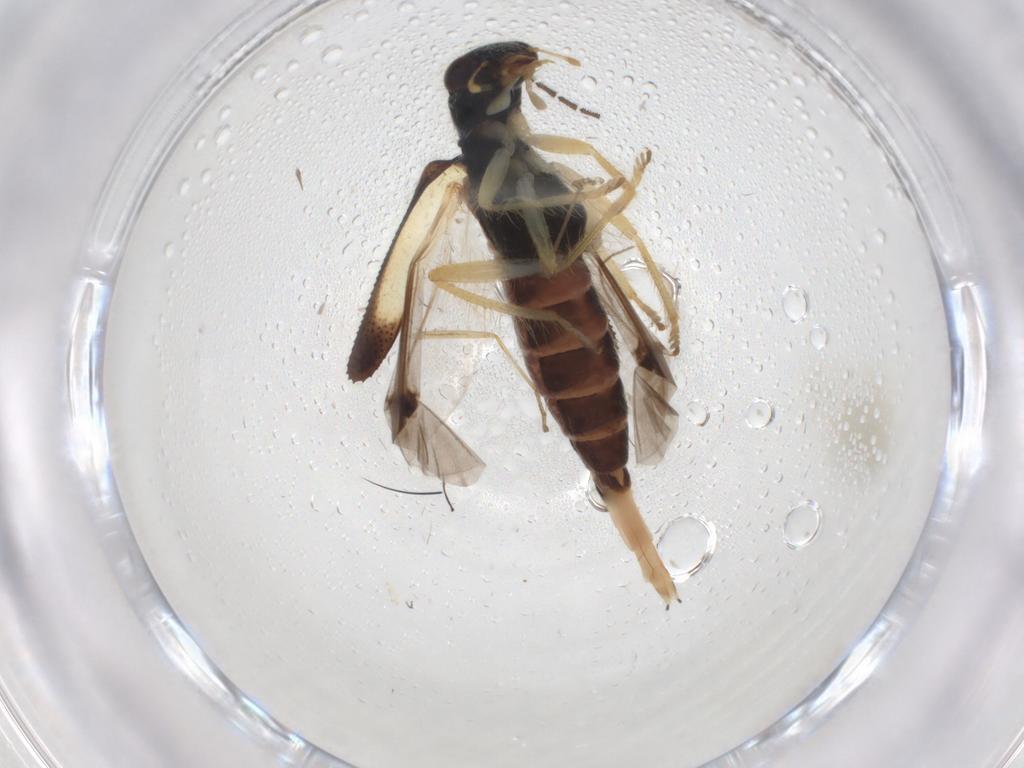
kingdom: Animalia
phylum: Arthropoda
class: Insecta
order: Coleoptera
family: Cleridae
